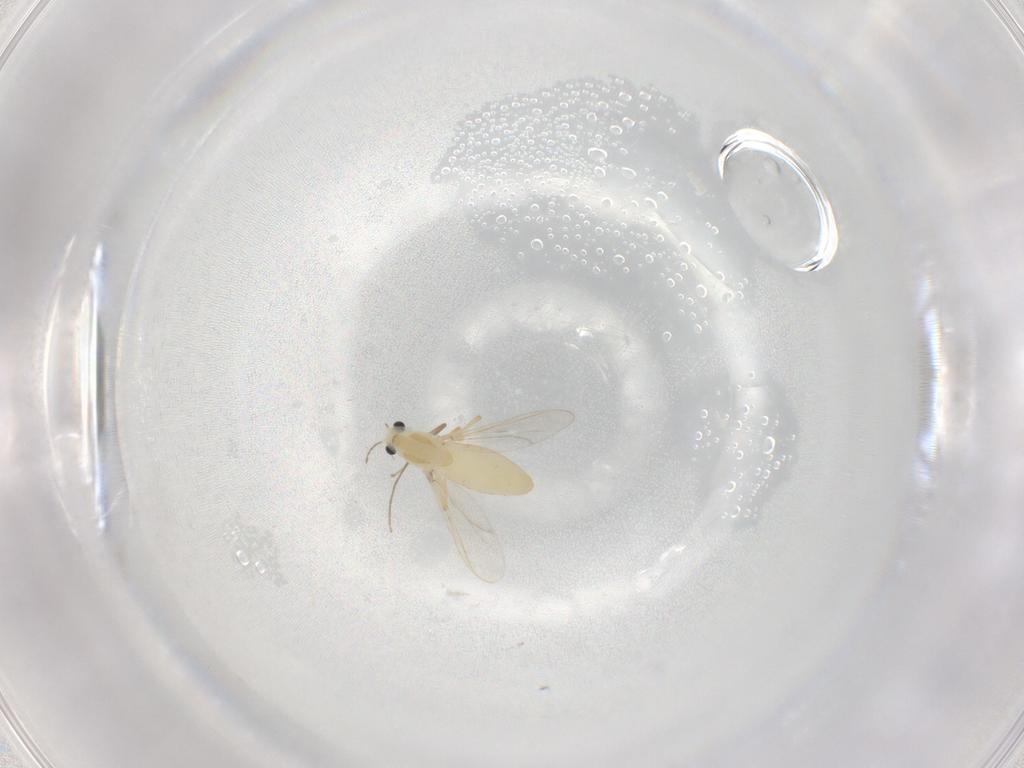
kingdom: Animalia
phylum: Arthropoda
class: Insecta
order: Diptera
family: Chironomidae
